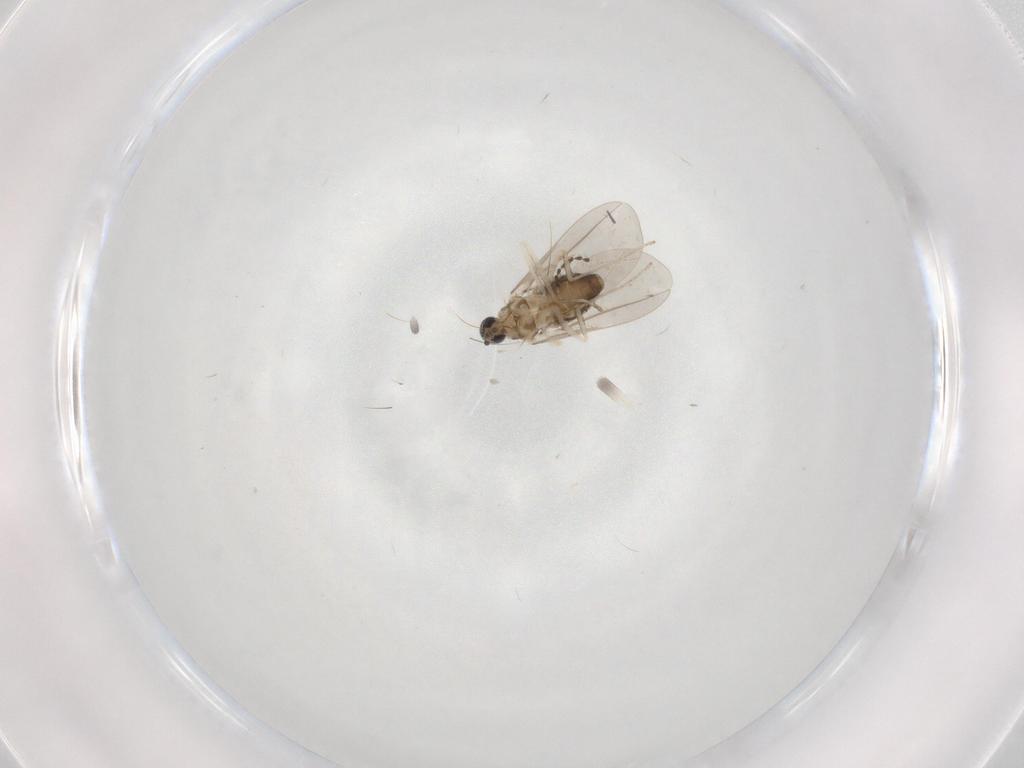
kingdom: Animalia
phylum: Arthropoda
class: Insecta
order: Diptera
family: Cecidomyiidae
